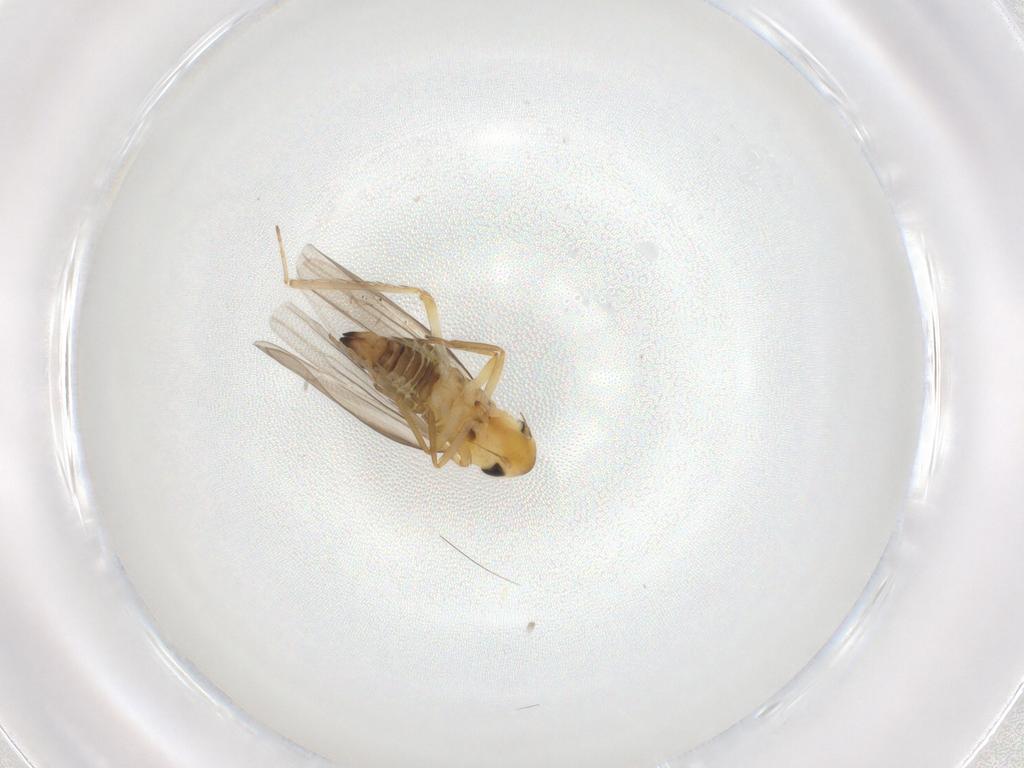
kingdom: Animalia
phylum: Arthropoda
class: Insecta
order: Hemiptera
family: Cicadellidae
